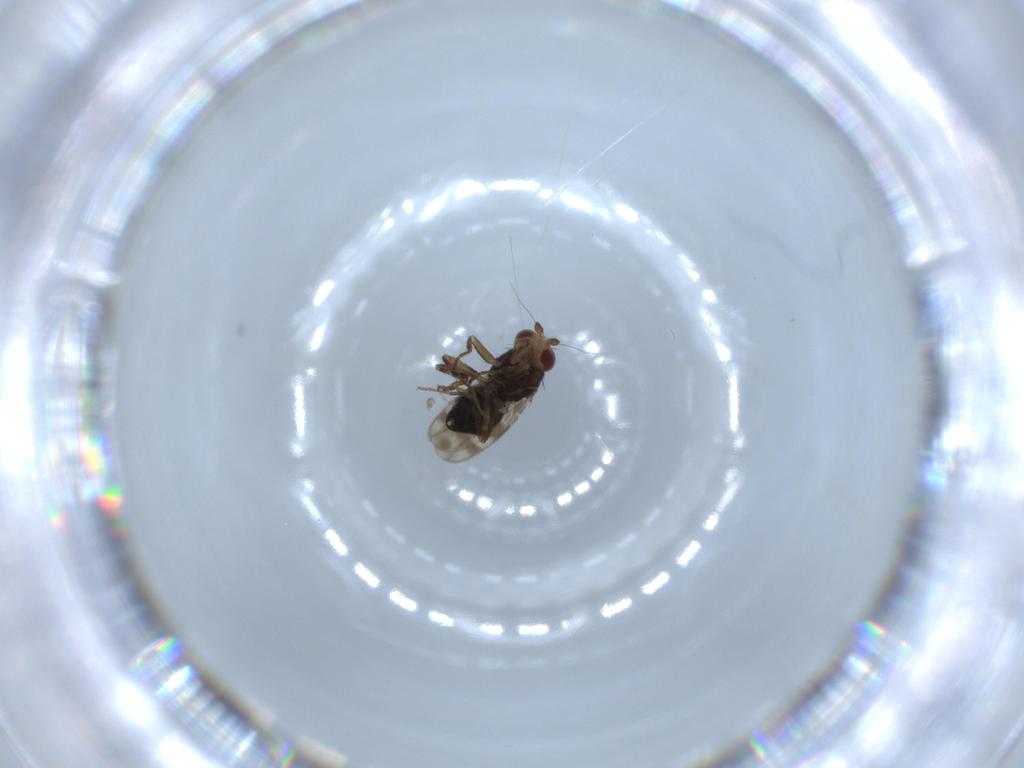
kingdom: Animalia
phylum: Arthropoda
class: Insecta
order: Diptera
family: Sphaeroceridae
